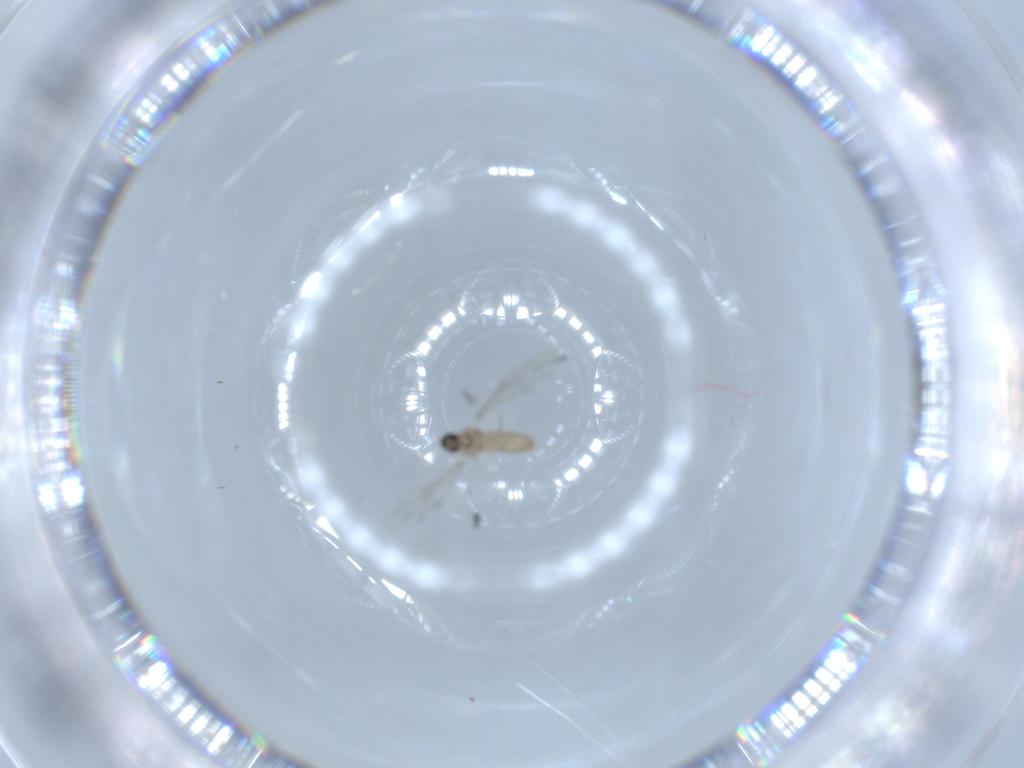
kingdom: Animalia
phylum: Arthropoda
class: Insecta
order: Diptera
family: Cecidomyiidae
